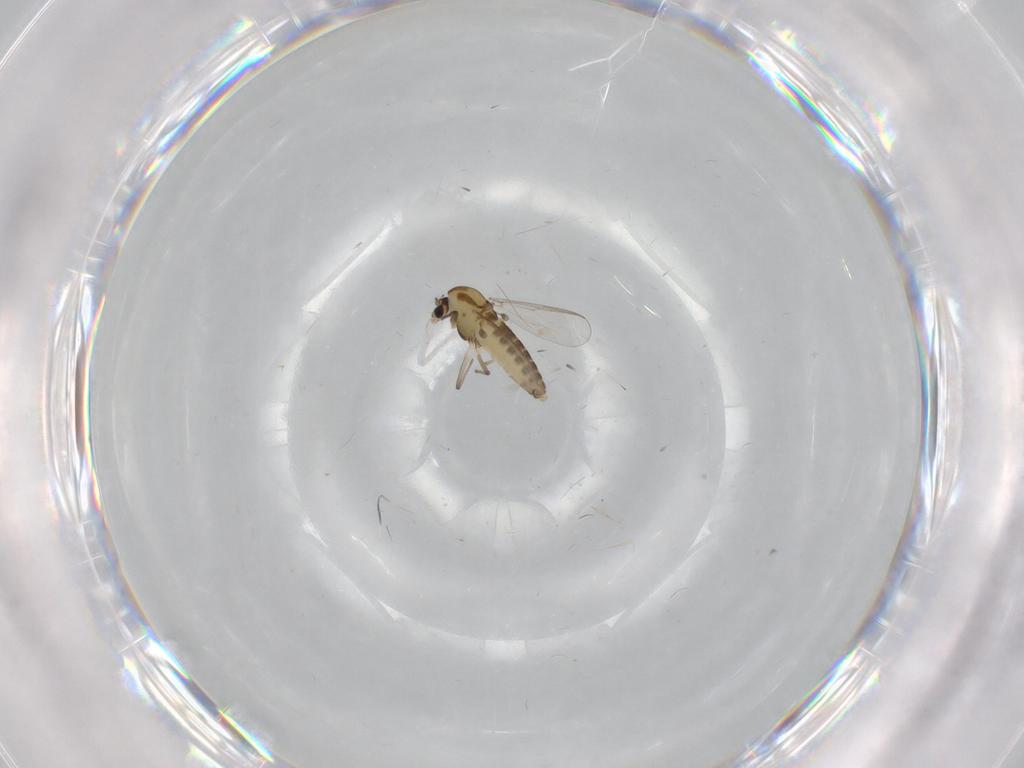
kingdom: Animalia
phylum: Arthropoda
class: Insecta
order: Diptera
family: Chironomidae
